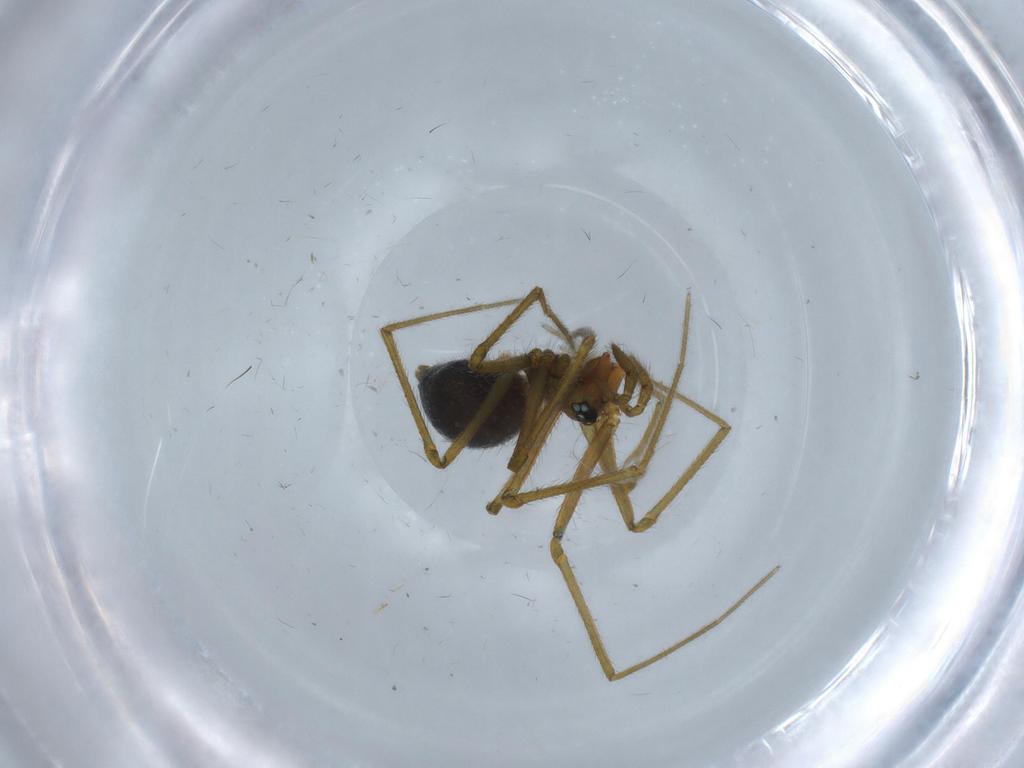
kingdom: Animalia
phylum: Arthropoda
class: Arachnida
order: Araneae
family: Linyphiidae
